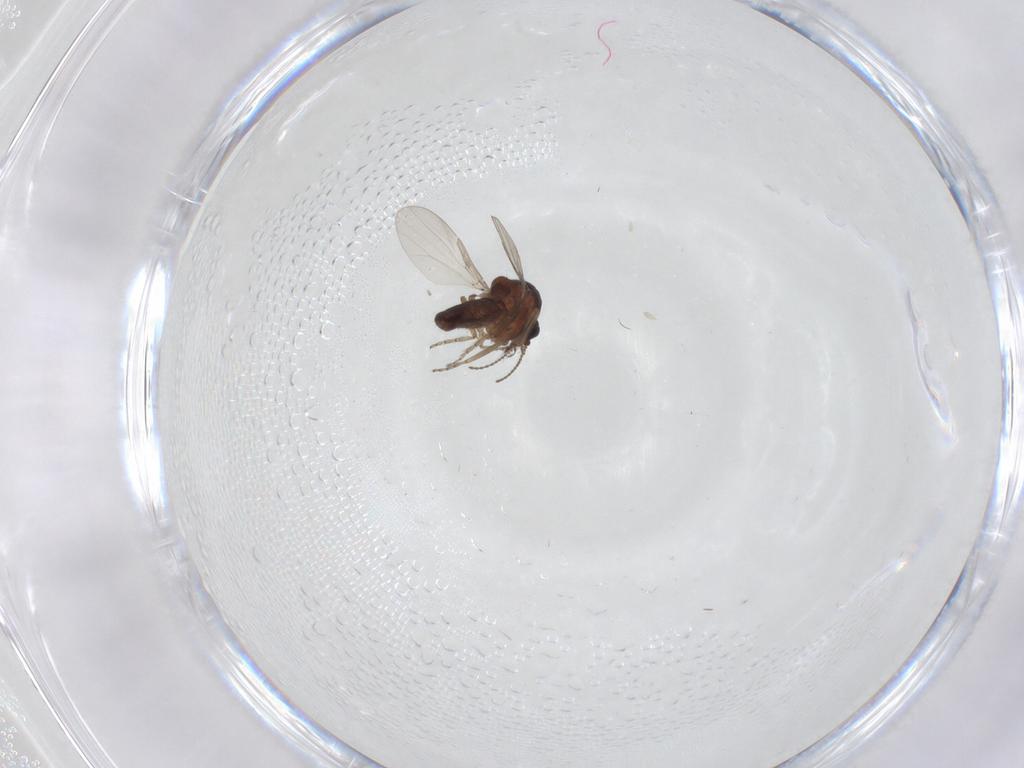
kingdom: Animalia
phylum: Arthropoda
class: Insecta
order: Diptera
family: Ceratopogonidae
